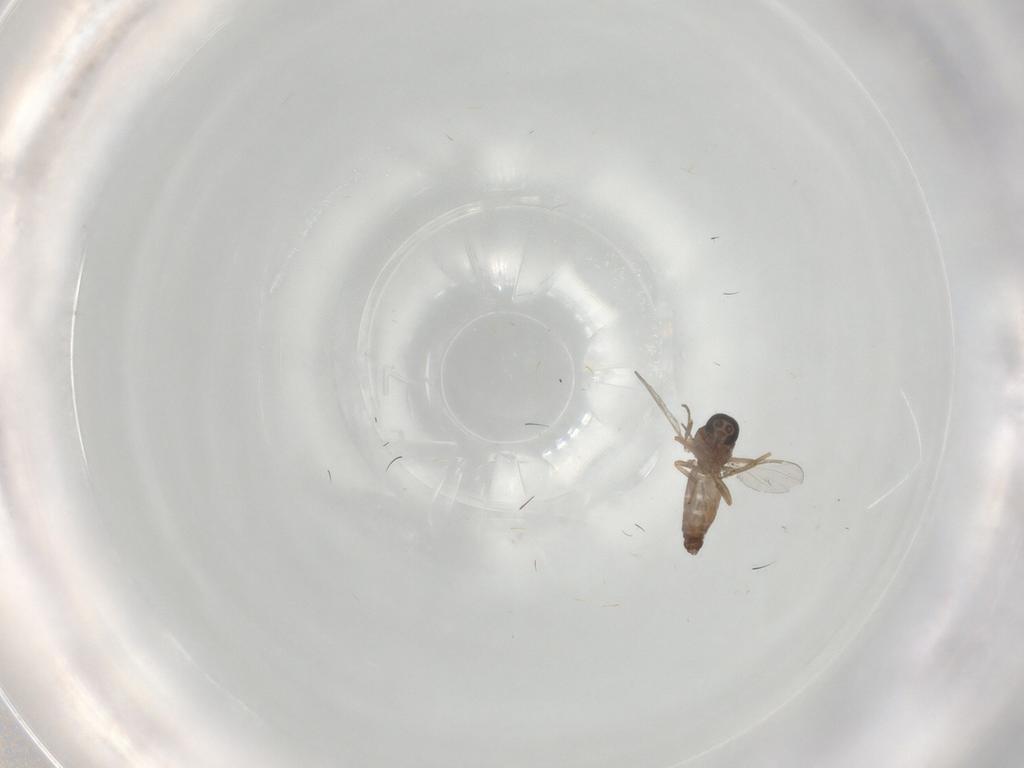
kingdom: Animalia
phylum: Arthropoda
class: Insecta
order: Diptera
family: Tabanidae
